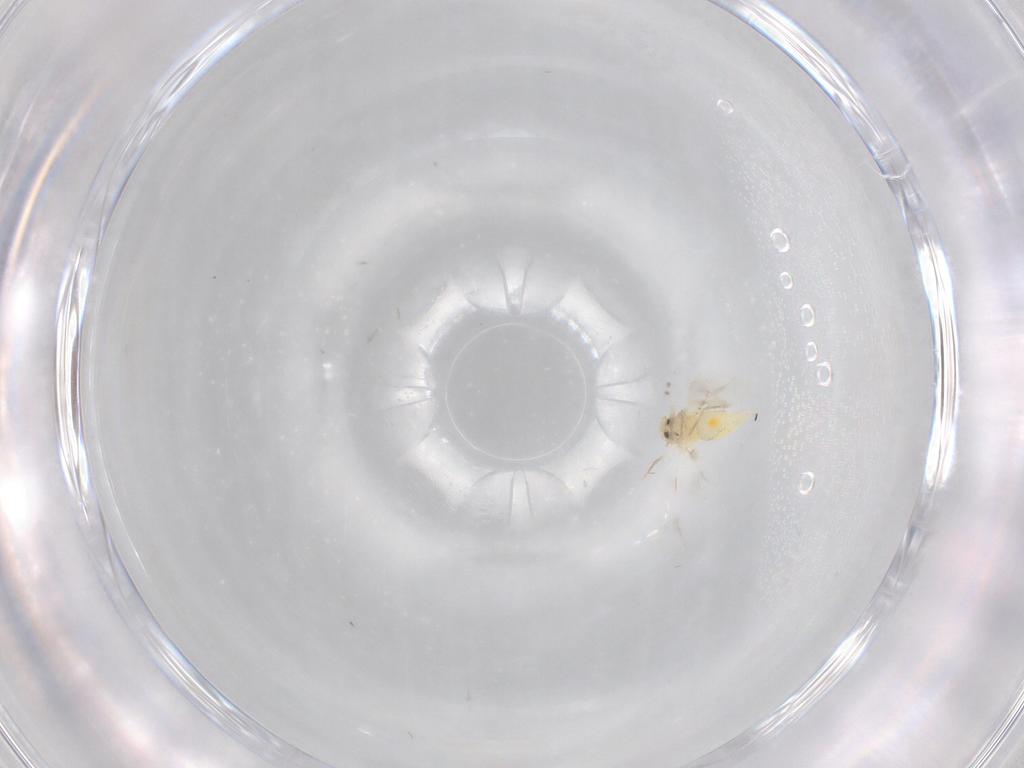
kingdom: Animalia
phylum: Arthropoda
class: Insecta
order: Hemiptera
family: Aleyrodidae
